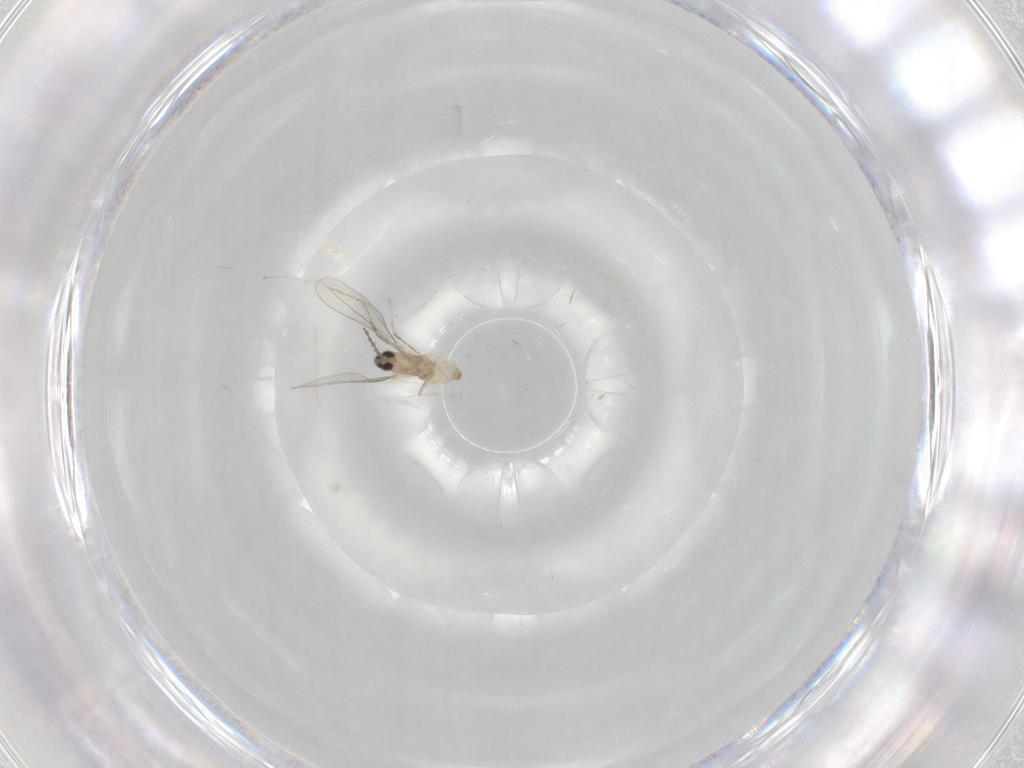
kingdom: Animalia
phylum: Arthropoda
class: Insecta
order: Diptera
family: Cecidomyiidae
